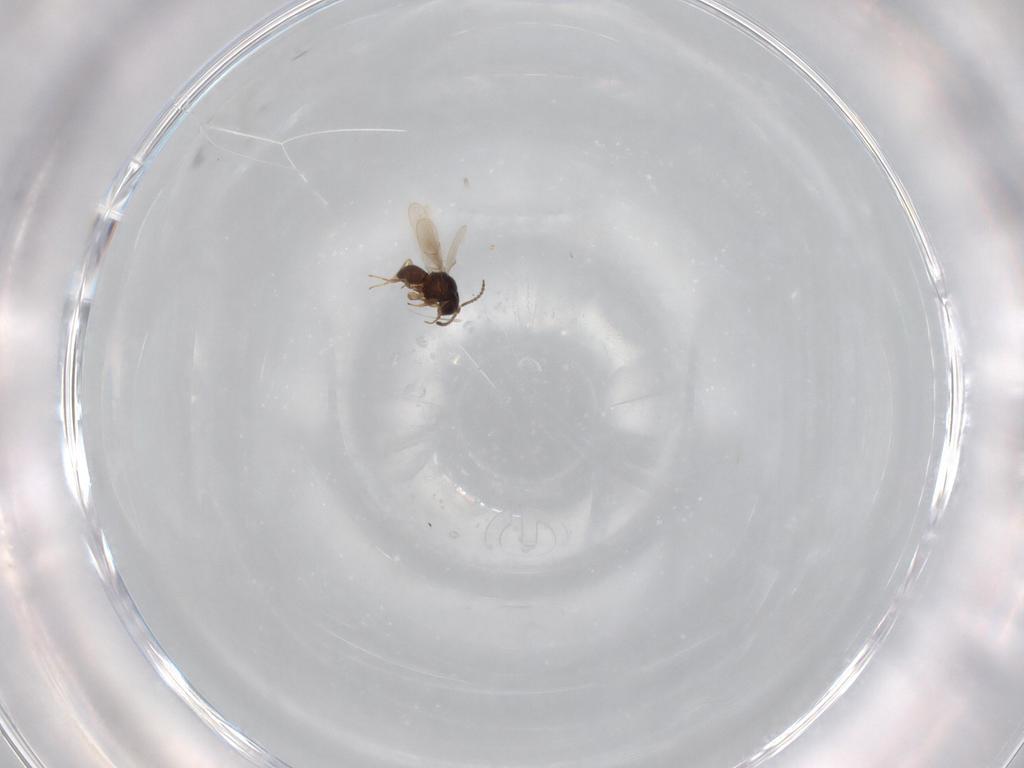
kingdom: Animalia
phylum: Arthropoda
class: Insecta
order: Hymenoptera
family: Scelionidae
